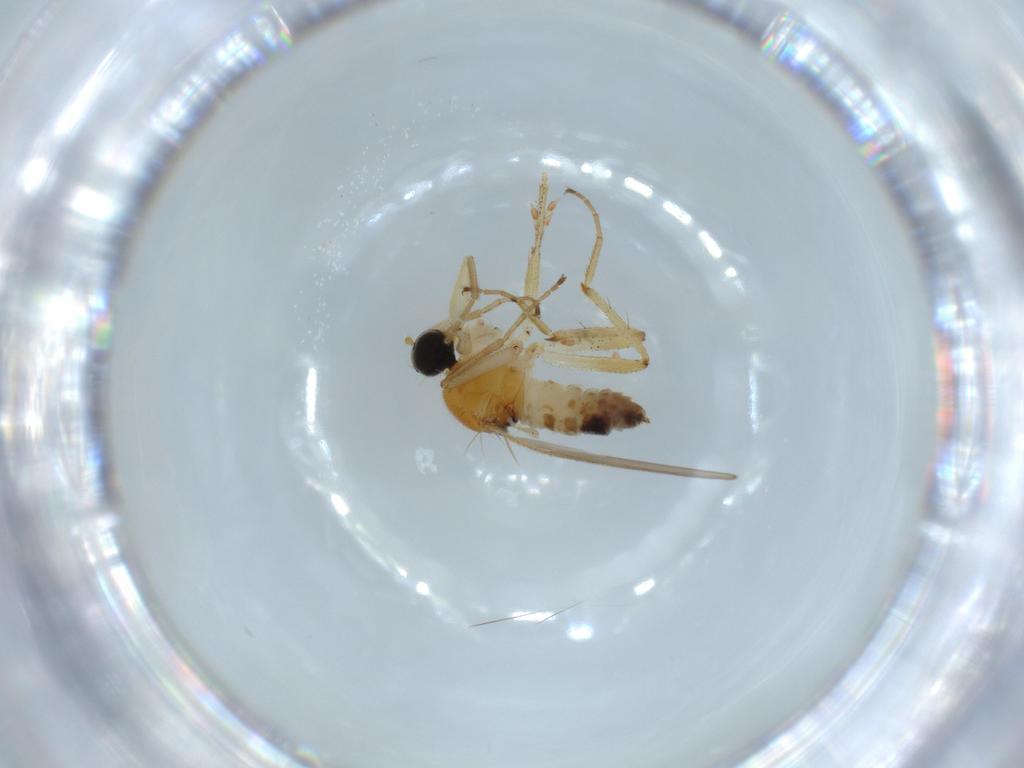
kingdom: Animalia
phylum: Arthropoda
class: Insecta
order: Diptera
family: Hybotidae
